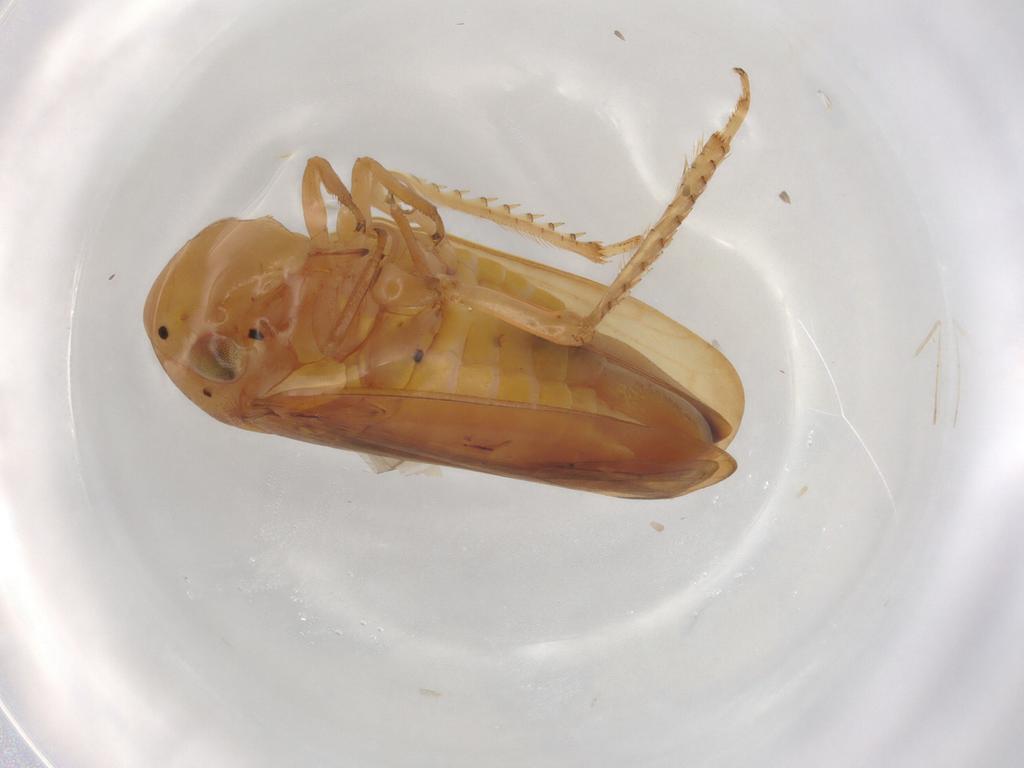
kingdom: Animalia
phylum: Arthropoda
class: Insecta
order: Hemiptera
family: Cicadellidae
